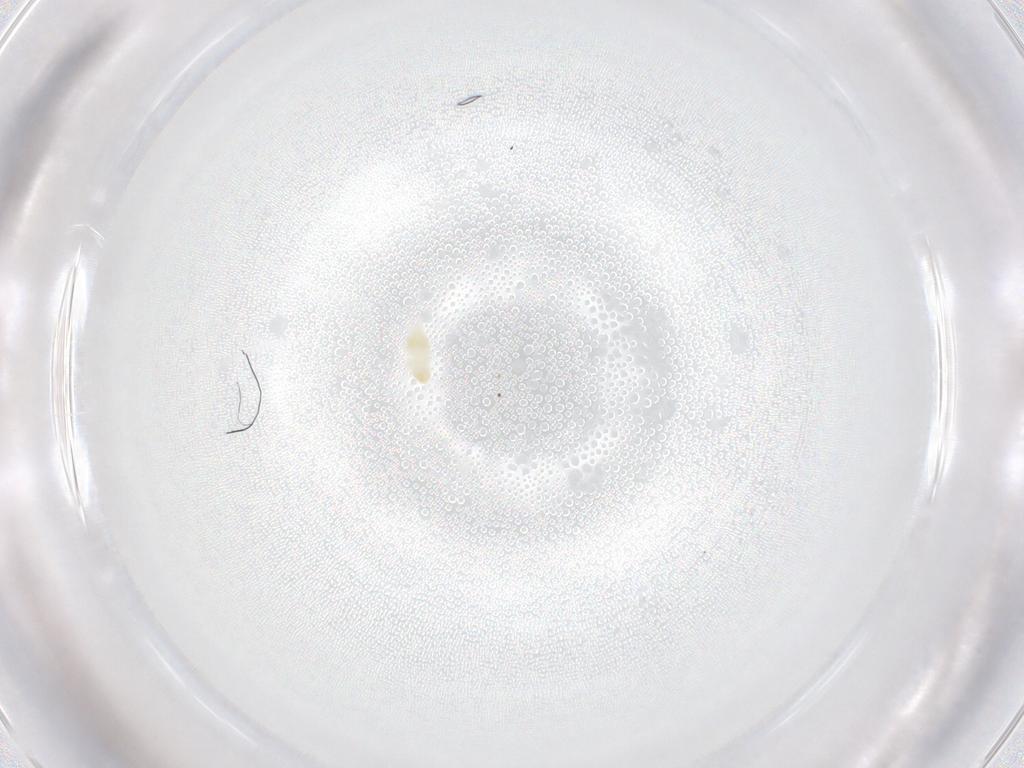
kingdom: Animalia
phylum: Arthropoda
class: Arachnida
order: Trombidiformes
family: Eupodidae
